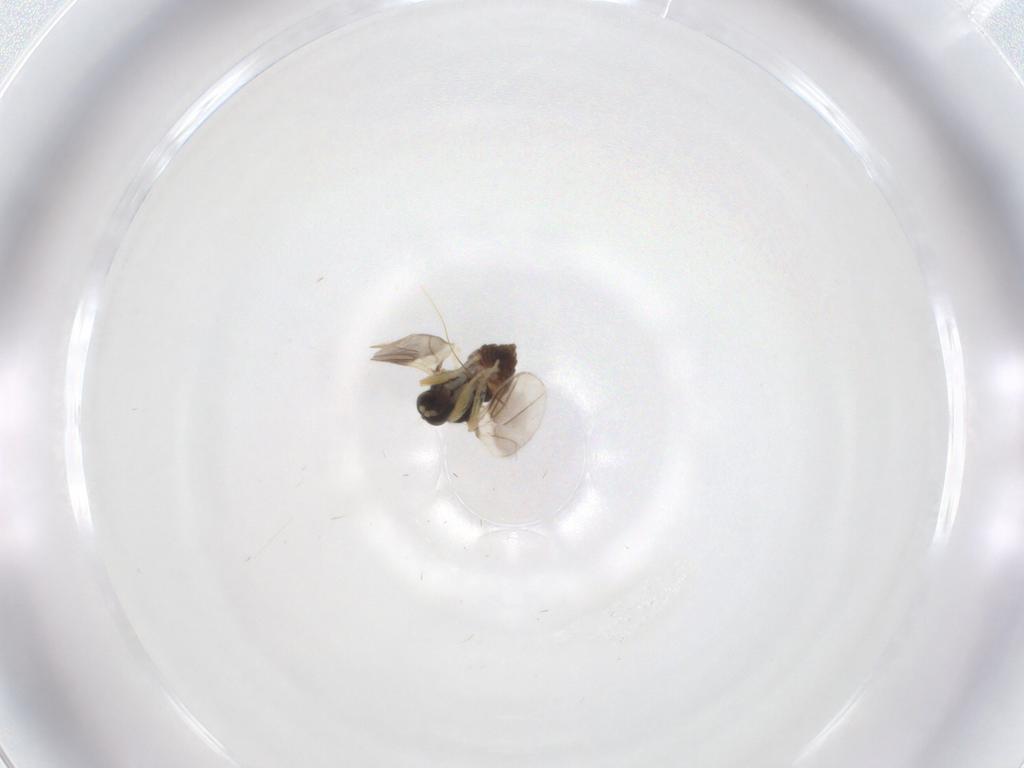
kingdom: Animalia
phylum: Arthropoda
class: Insecta
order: Diptera
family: Hybotidae
